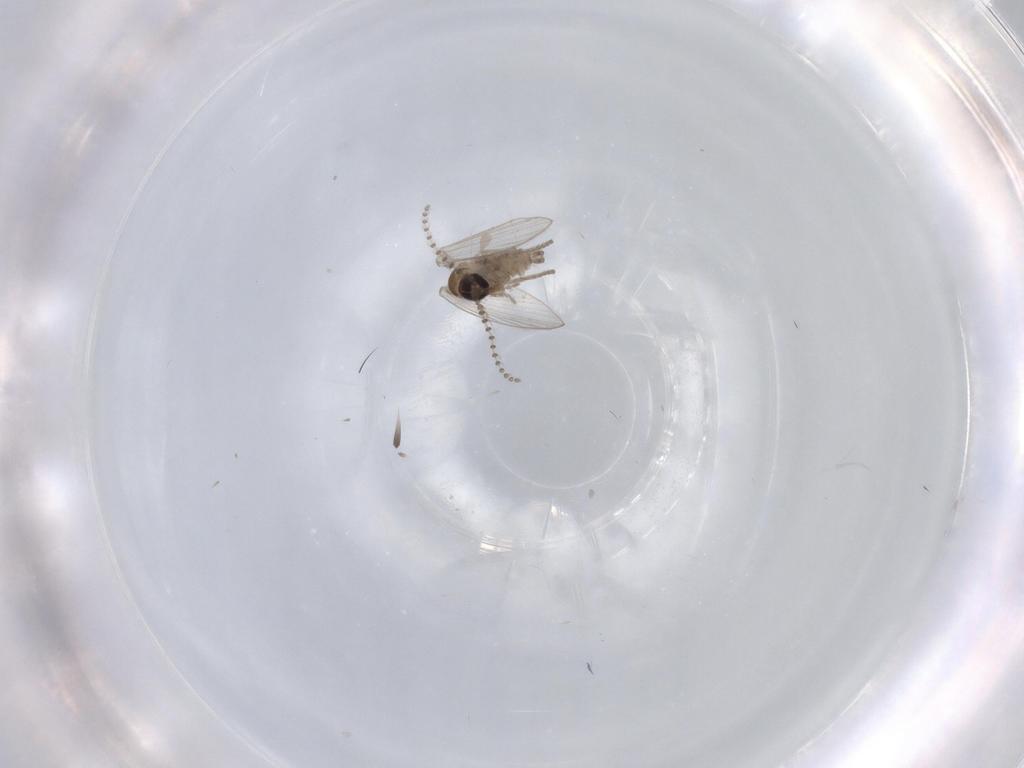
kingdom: Animalia
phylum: Arthropoda
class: Insecta
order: Diptera
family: Psychodidae
